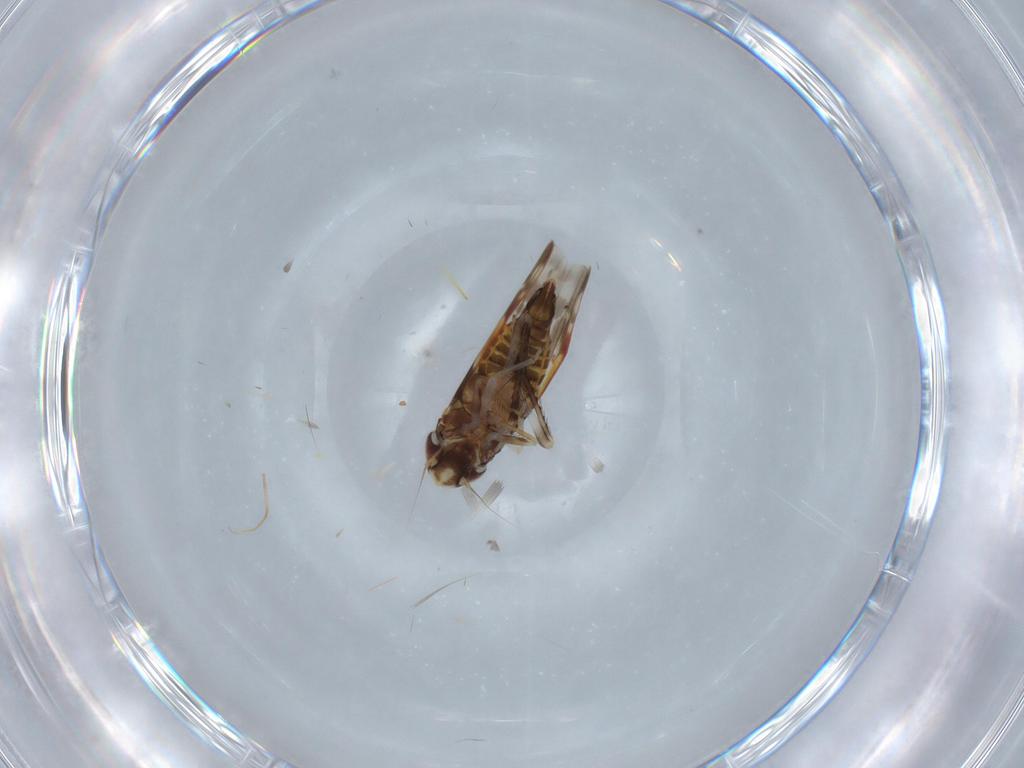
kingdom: Animalia
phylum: Arthropoda
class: Insecta
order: Hemiptera
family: Cicadellidae
